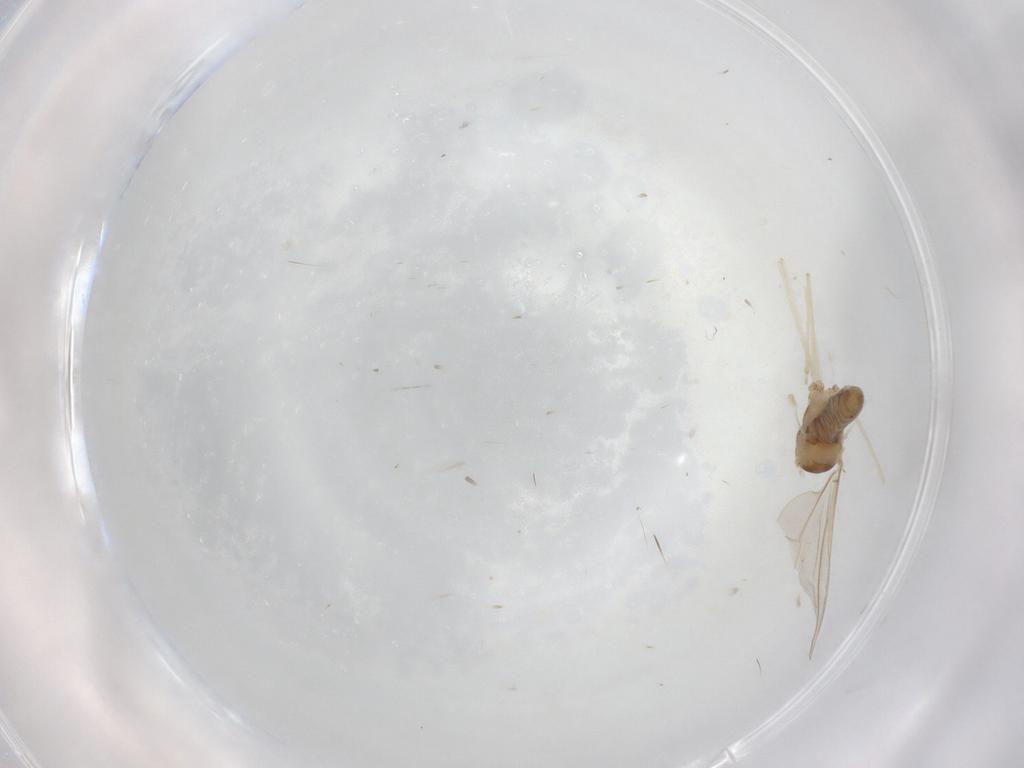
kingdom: Animalia
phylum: Arthropoda
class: Insecta
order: Diptera
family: Cecidomyiidae
